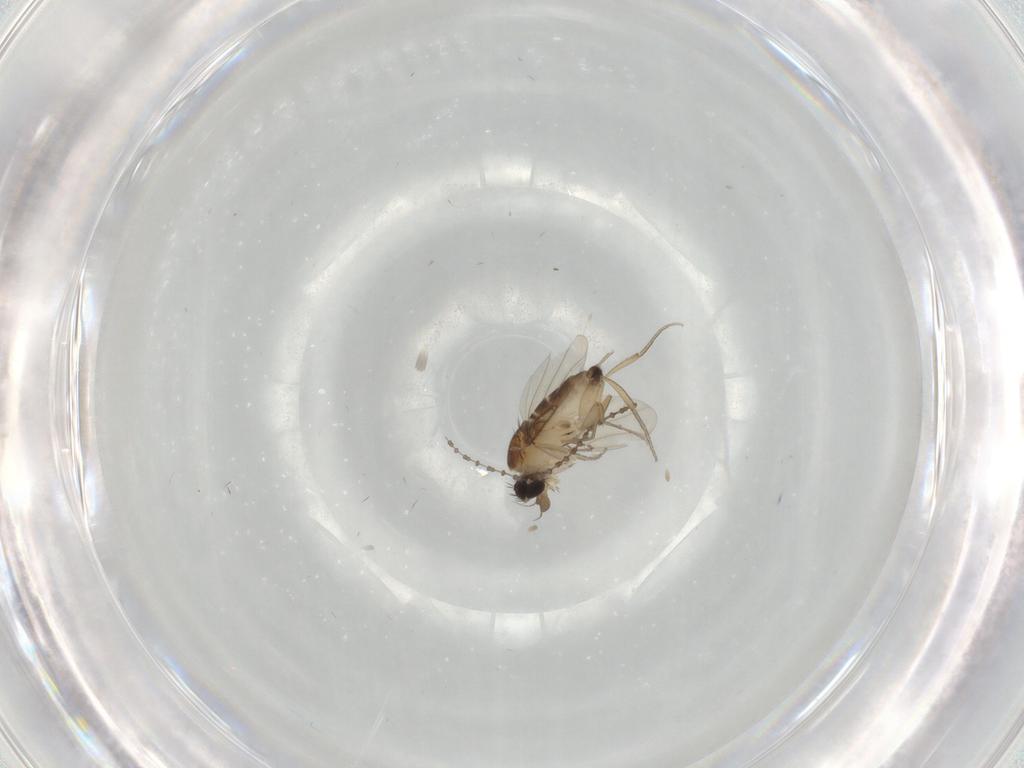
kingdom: Animalia
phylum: Arthropoda
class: Insecta
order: Diptera
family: Phoridae
